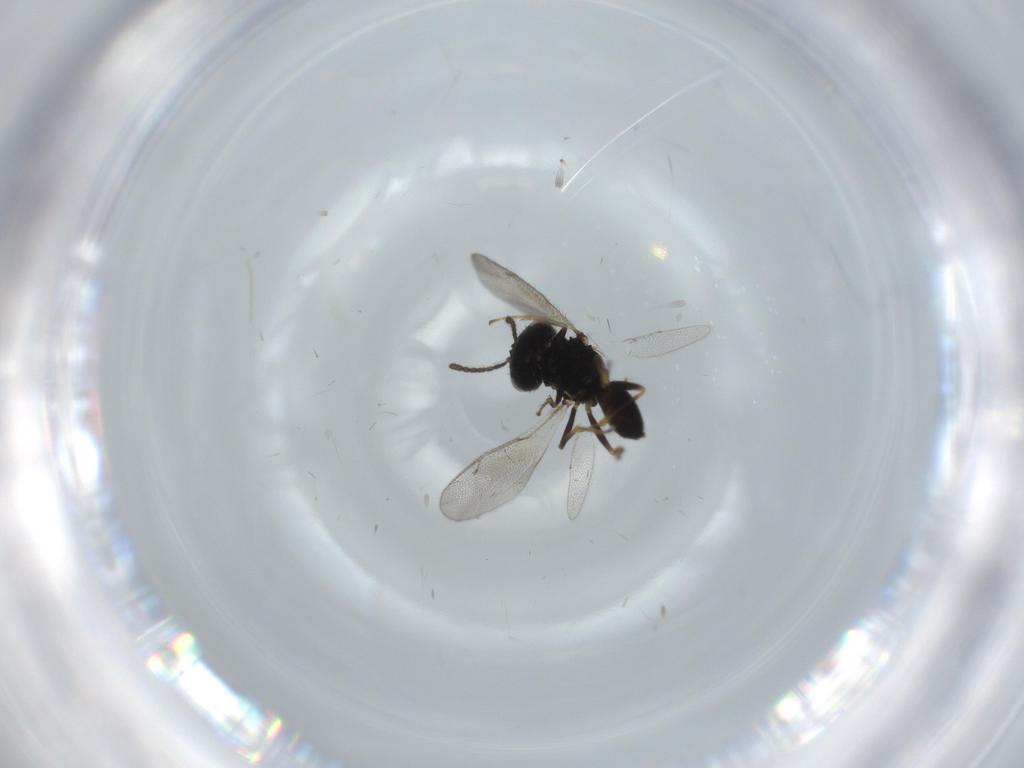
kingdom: Animalia
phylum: Arthropoda
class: Insecta
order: Hymenoptera
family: Pteromalidae
